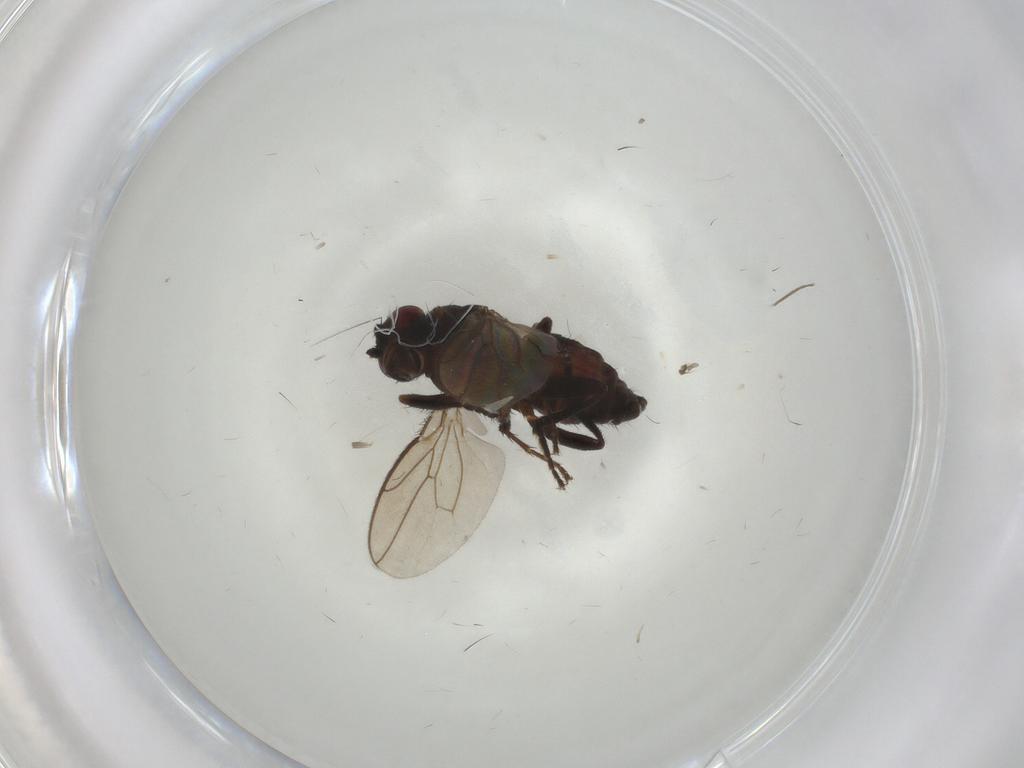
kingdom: Animalia
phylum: Arthropoda
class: Insecta
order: Diptera
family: Sphaeroceridae
